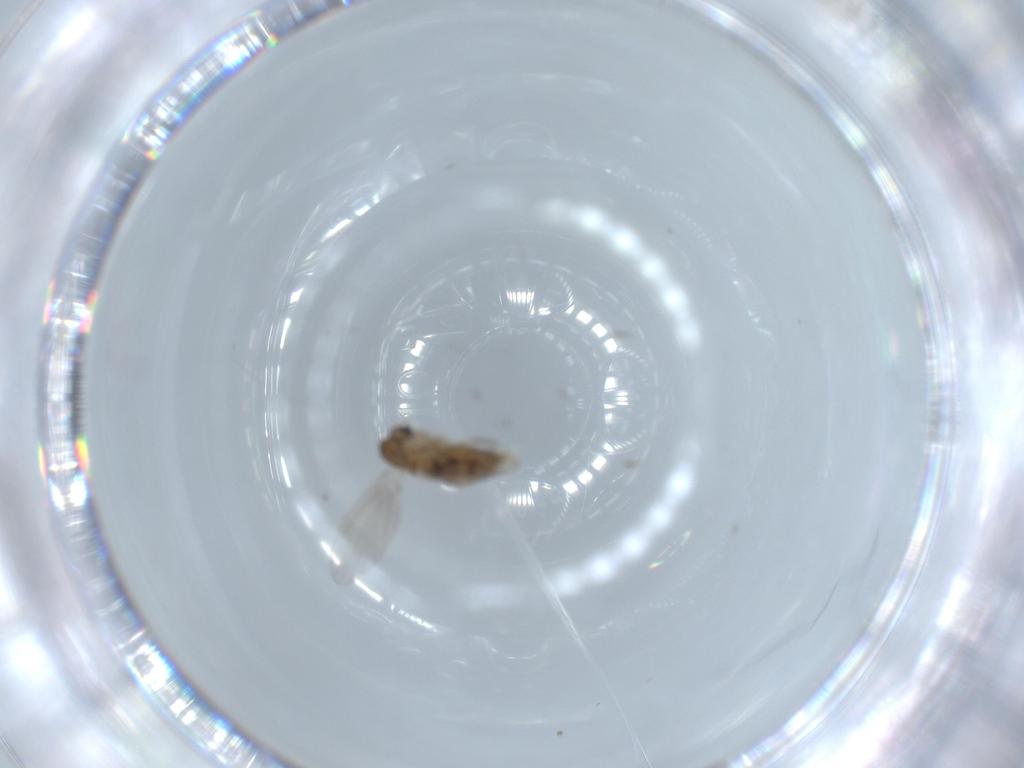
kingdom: Animalia
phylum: Arthropoda
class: Insecta
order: Diptera
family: Psychodidae
